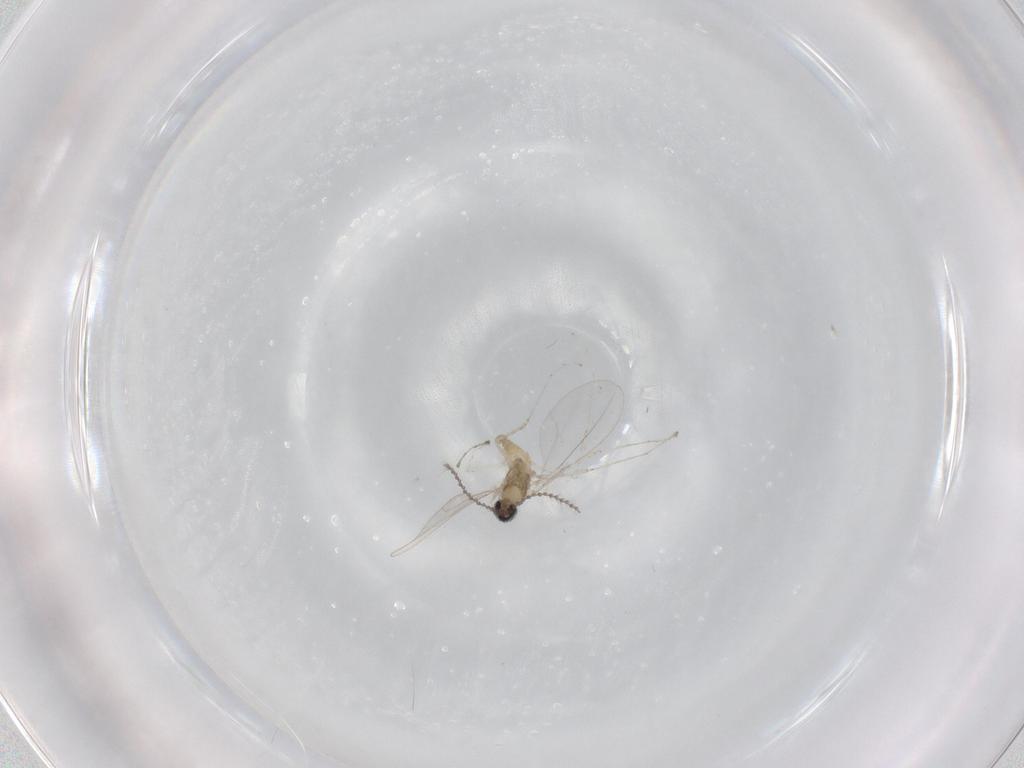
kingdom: Animalia
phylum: Arthropoda
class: Insecta
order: Diptera
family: Cecidomyiidae
